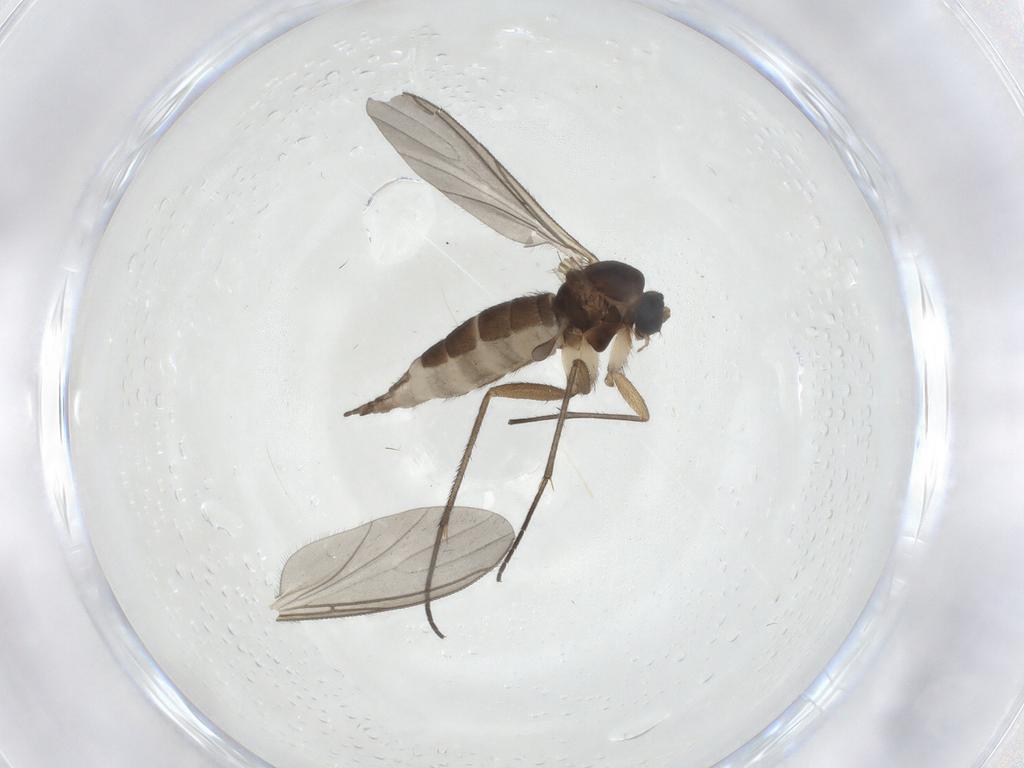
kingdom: Animalia
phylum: Arthropoda
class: Insecta
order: Diptera
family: Sciaridae
